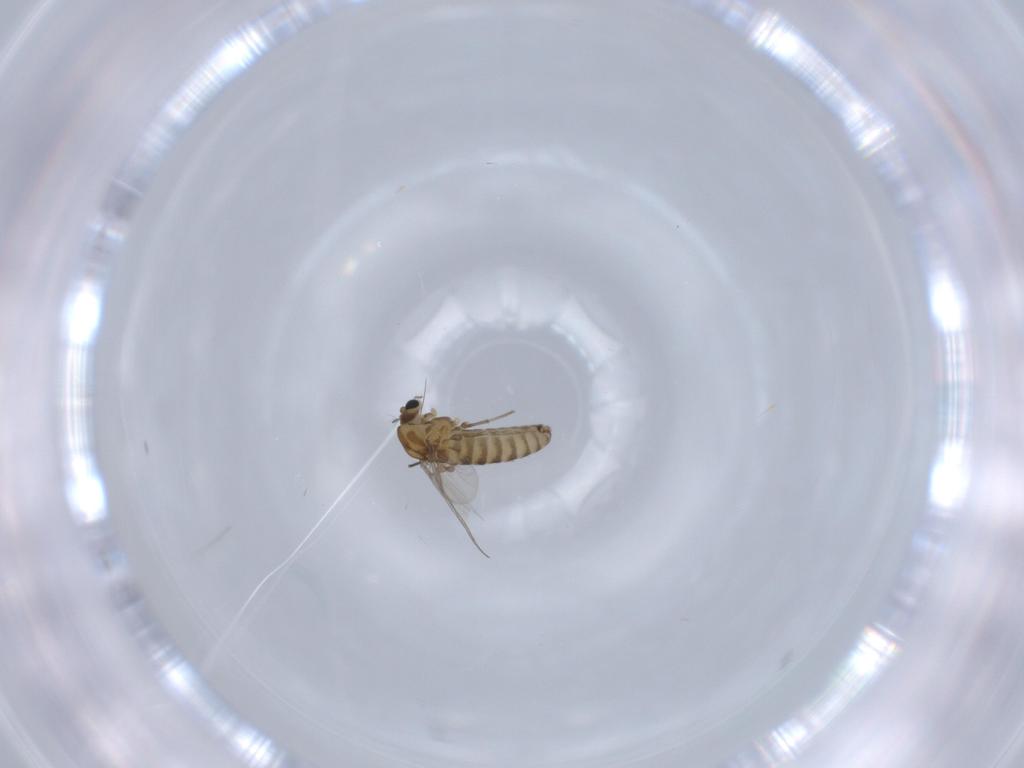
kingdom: Animalia
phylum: Arthropoda
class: Insecta
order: Diptera
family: Chironomidae
